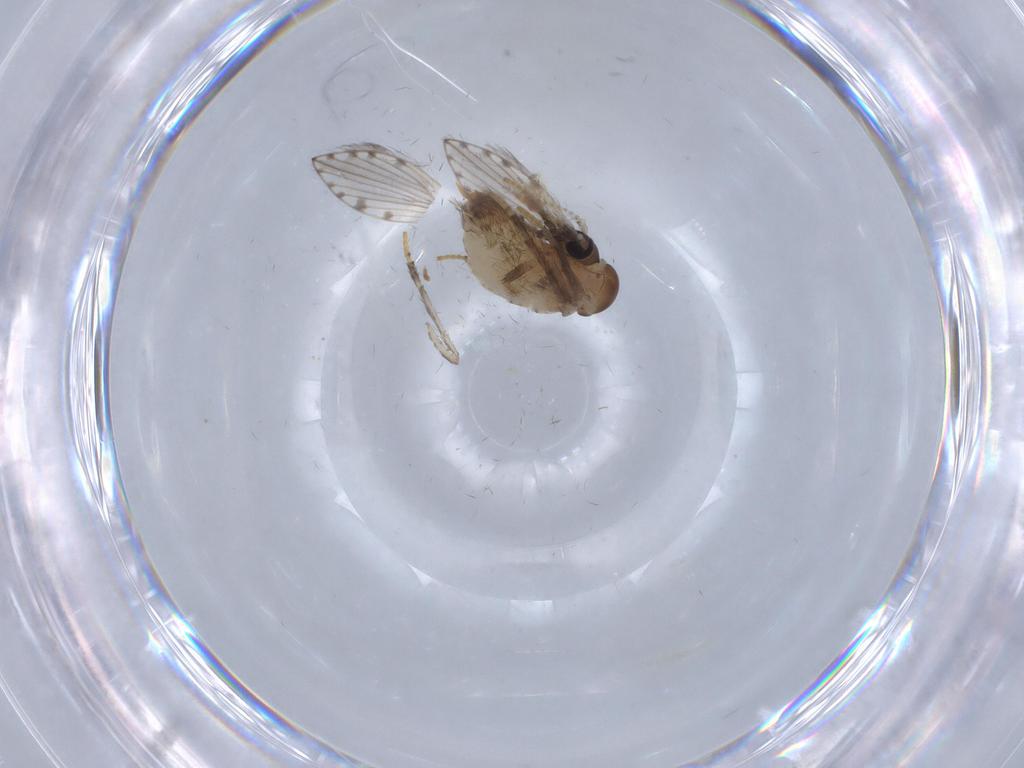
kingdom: Animalia
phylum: Arthropoda
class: Insecta
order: Diptera
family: Psychodidae
